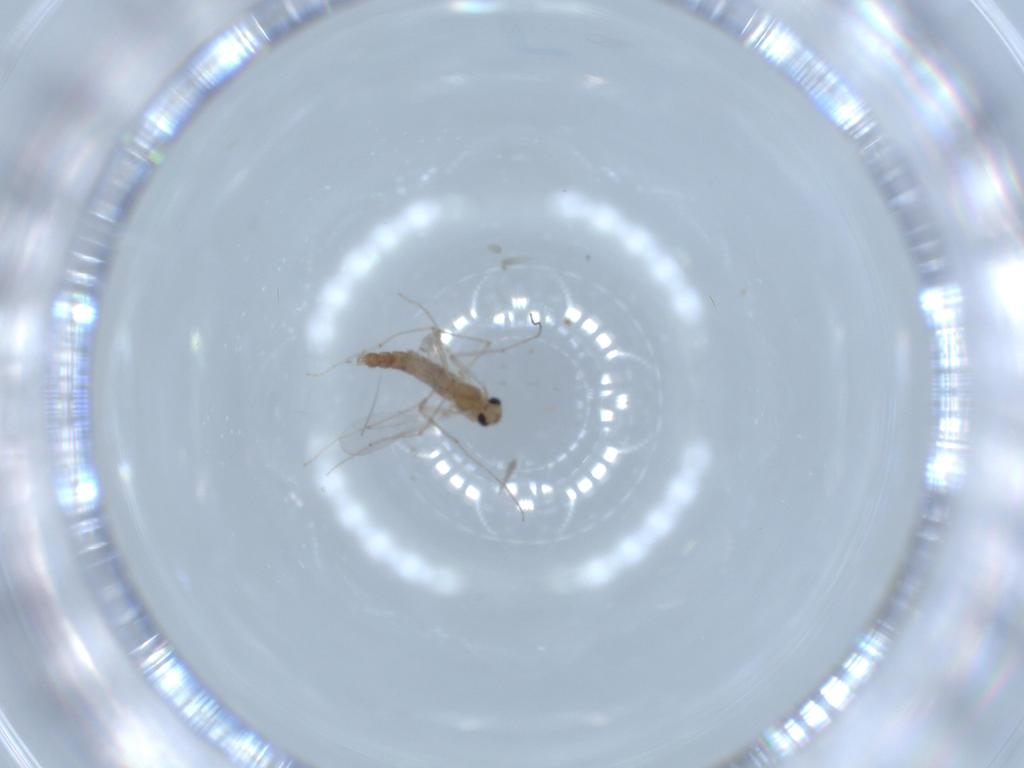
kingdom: Animalia
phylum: Arthropoda
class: Insecta
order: Diptera
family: Chironomidae
